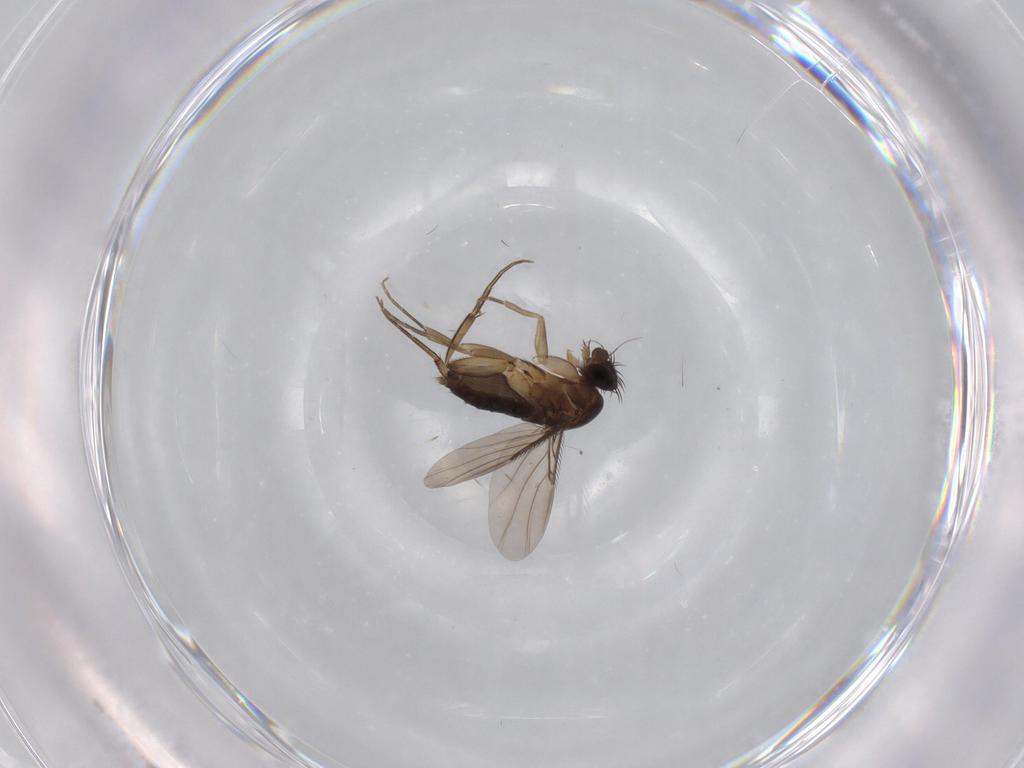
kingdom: Animalia
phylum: Arthropoda
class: Insecta
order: Diptera
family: Phoridae
